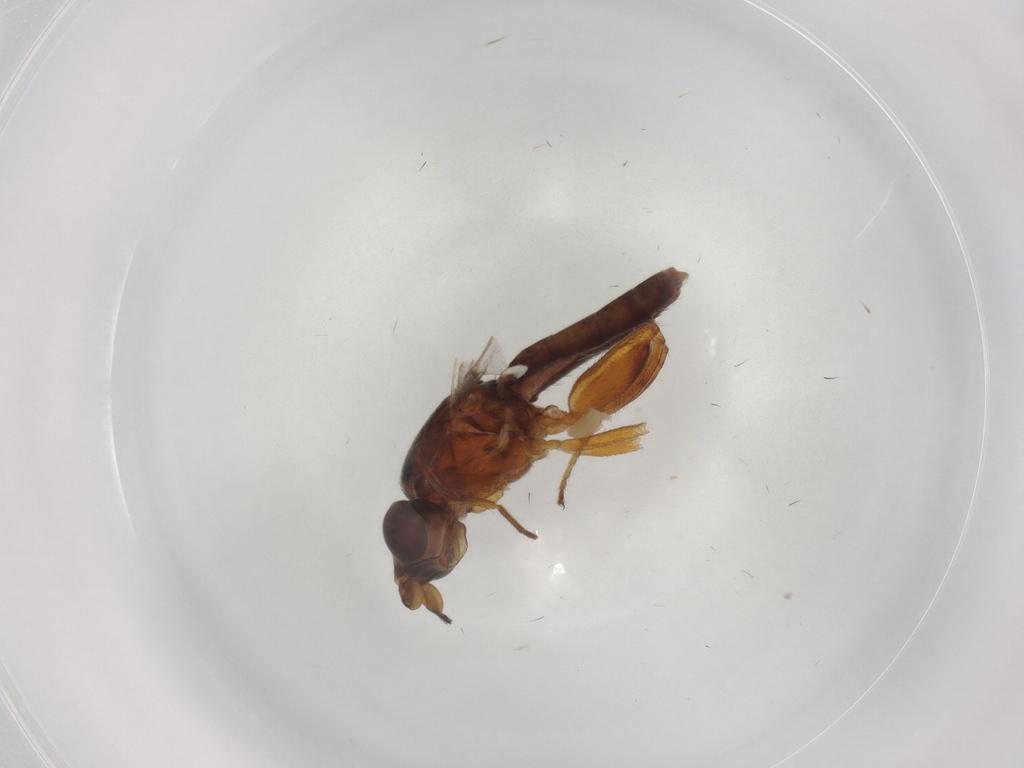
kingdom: Animalia
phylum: Arthropoda
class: Insecta
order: Diptera
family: Chloropidae
